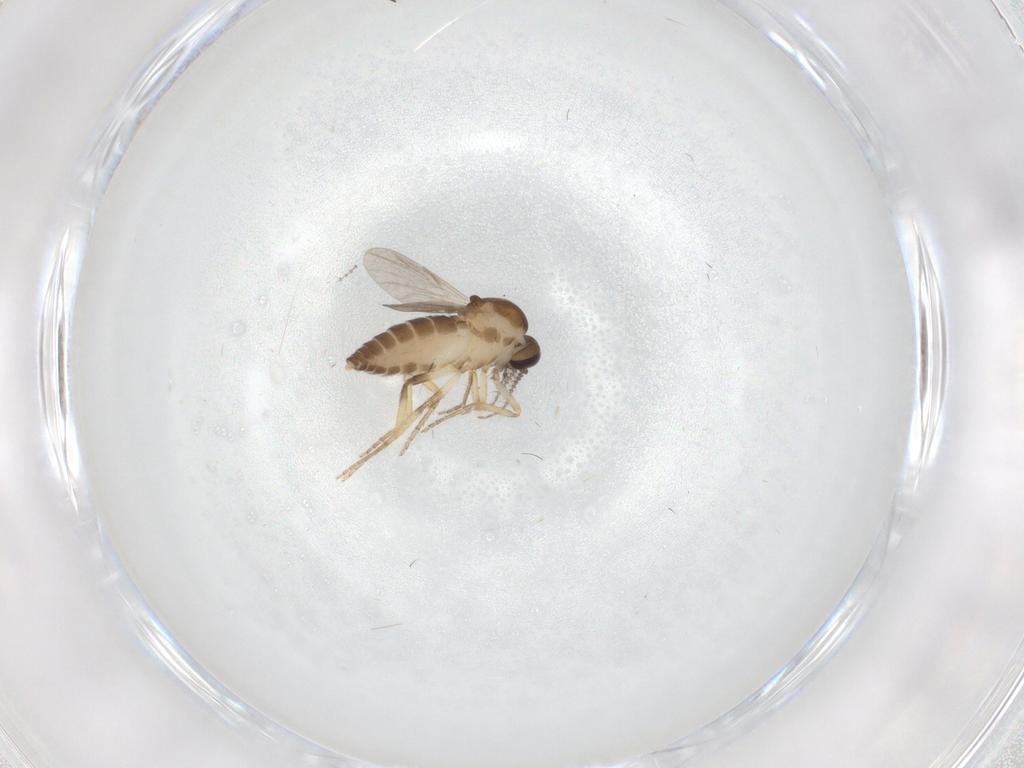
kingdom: Animalia
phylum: Arthropoda
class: Insecta
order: Diptera
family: Ceratopogonidae
